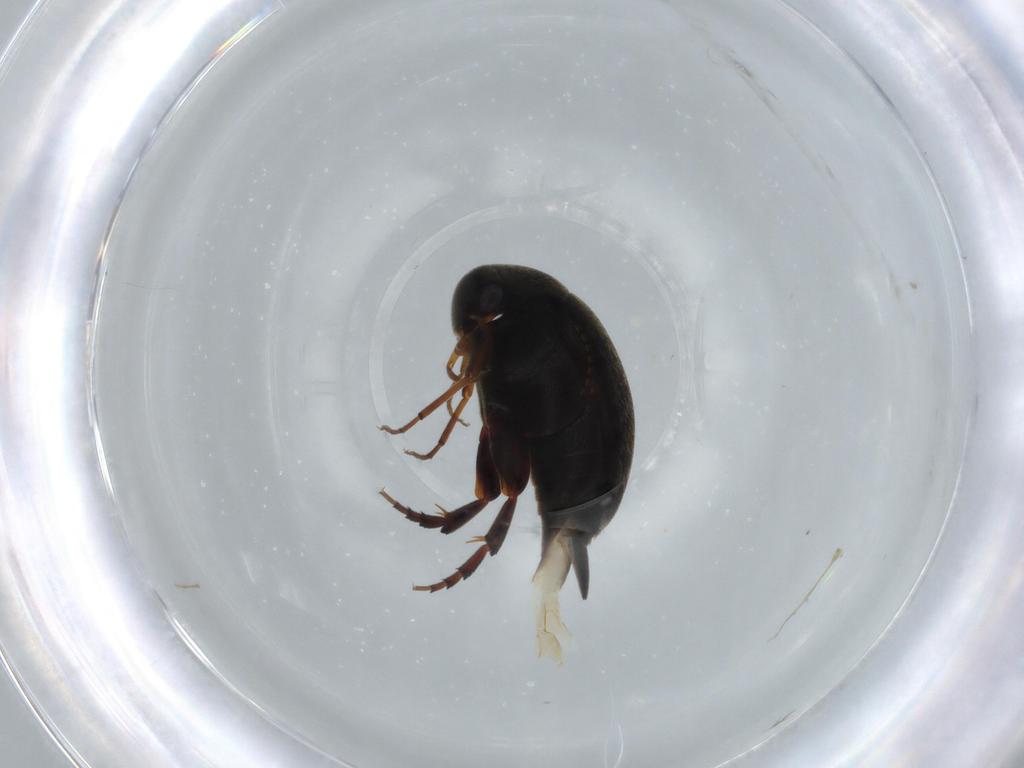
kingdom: Animalia
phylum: Arthropoda
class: Insecta
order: Coleoptera
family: Mordellidae
